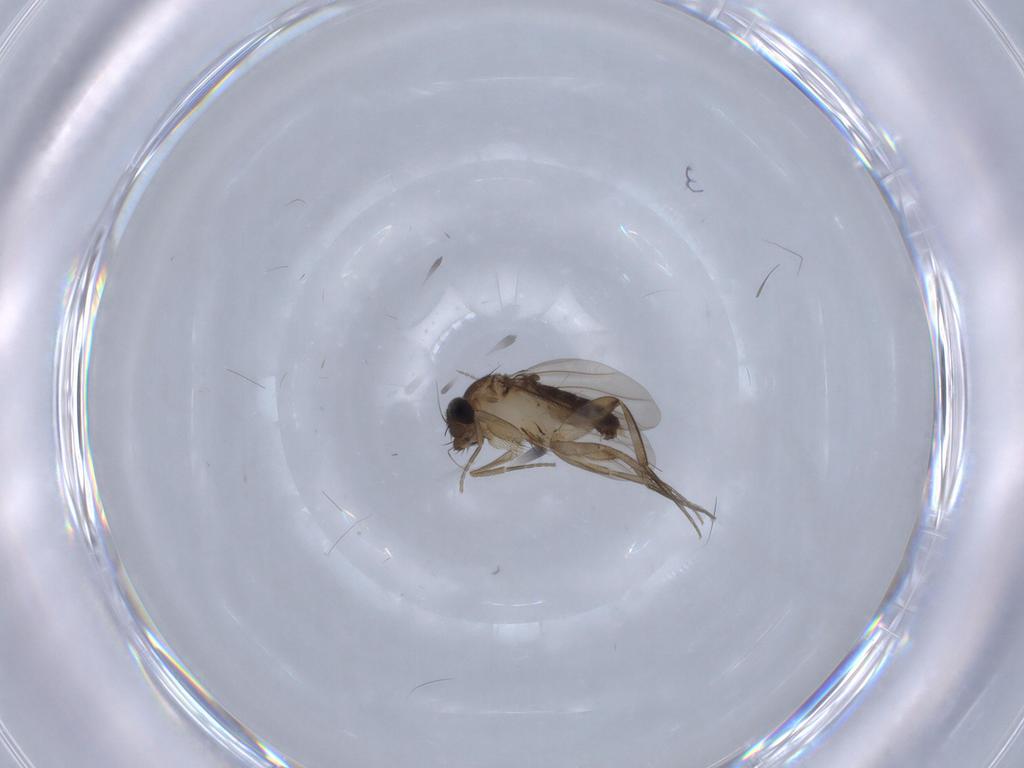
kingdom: Animalia
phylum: Arthropoda
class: Insecta
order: Diptera
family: Phoridae
